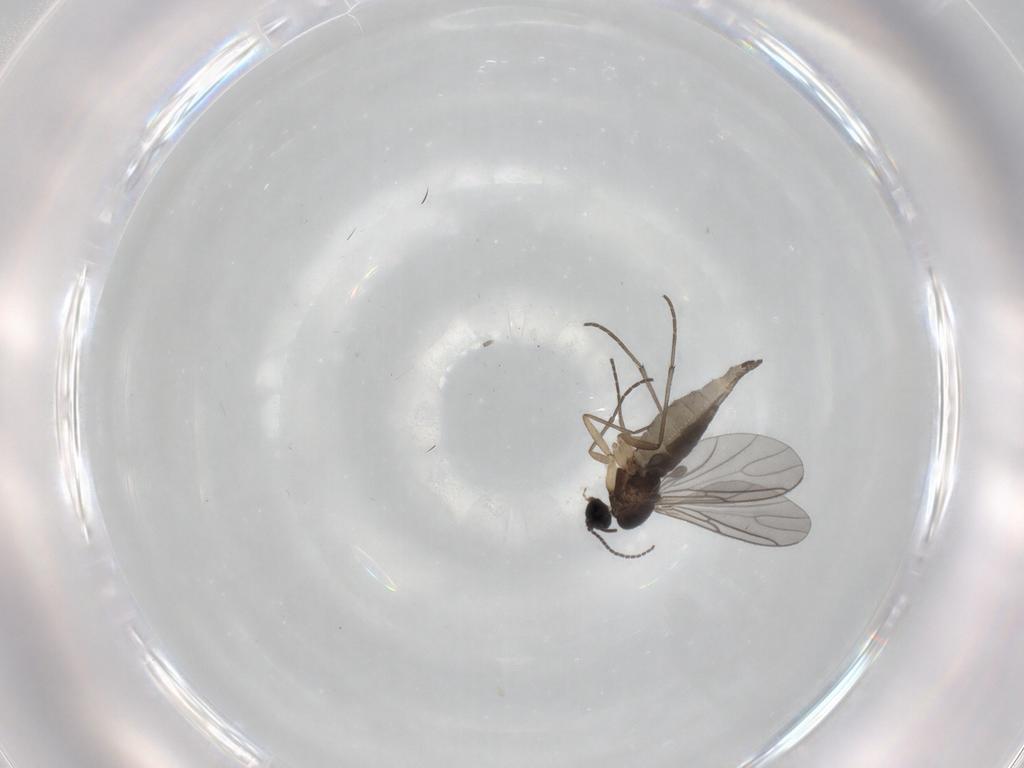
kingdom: Animalia
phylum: Arthropoda
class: Insecta
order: Diptera
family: Sciaridae
